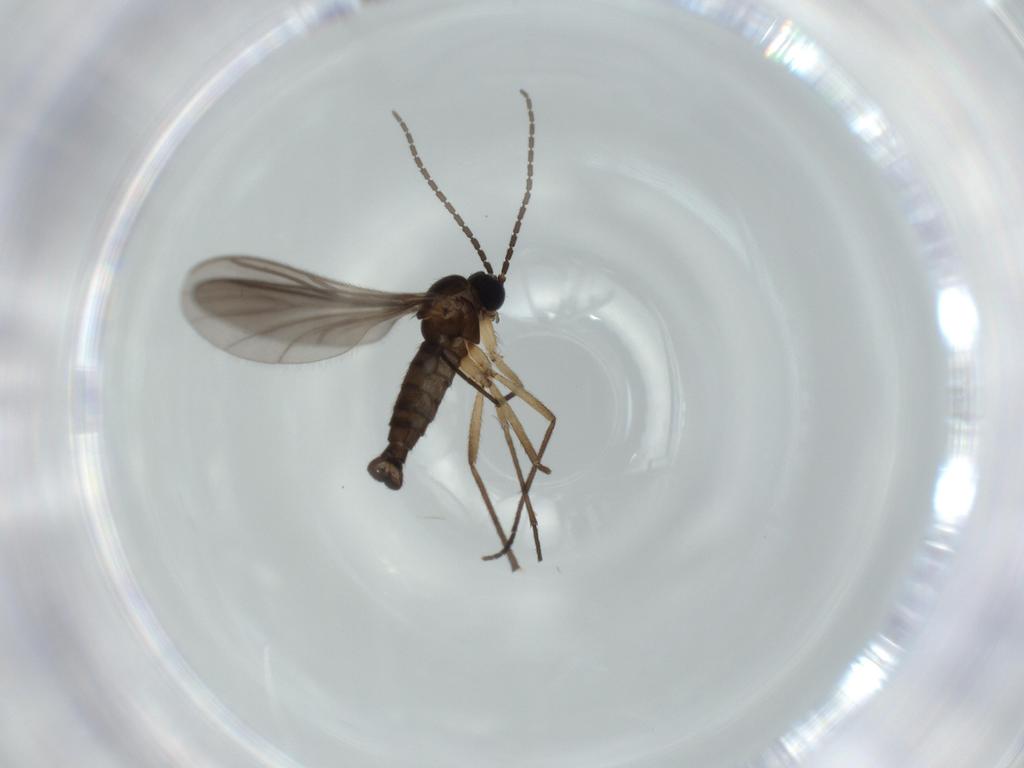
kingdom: Animalia
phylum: Arthropoda
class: Insecta
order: Diptera
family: Sciaridae
